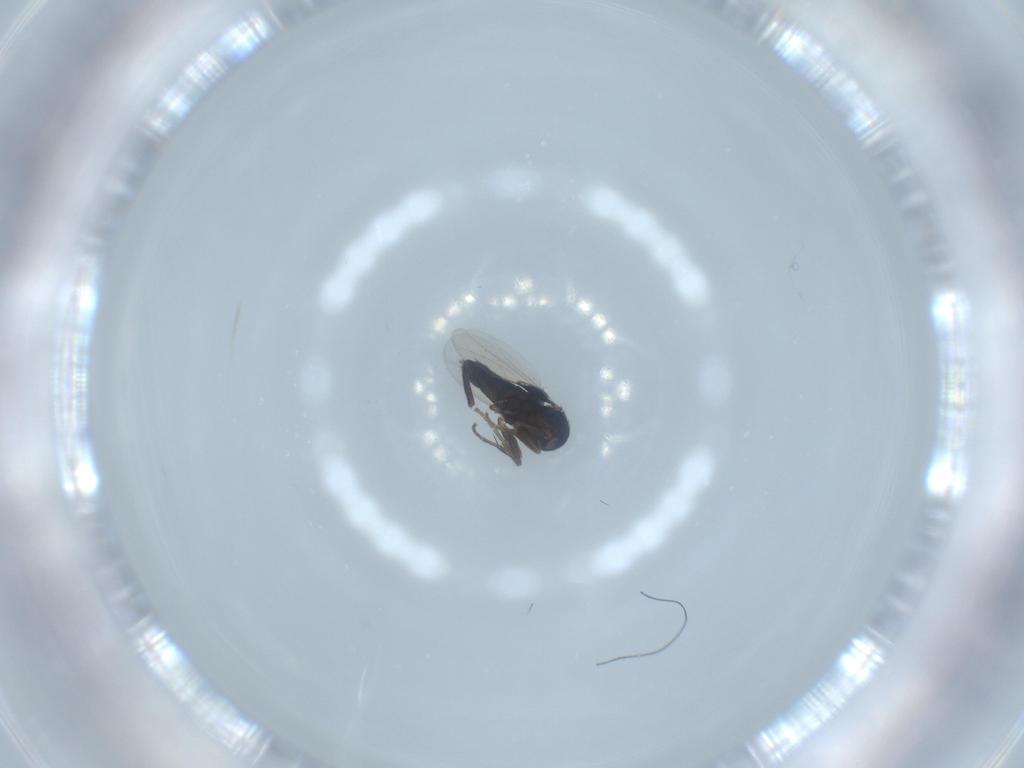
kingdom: Animalia
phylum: Arthropoda
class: Insecta
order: Diptera
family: Phoridae
